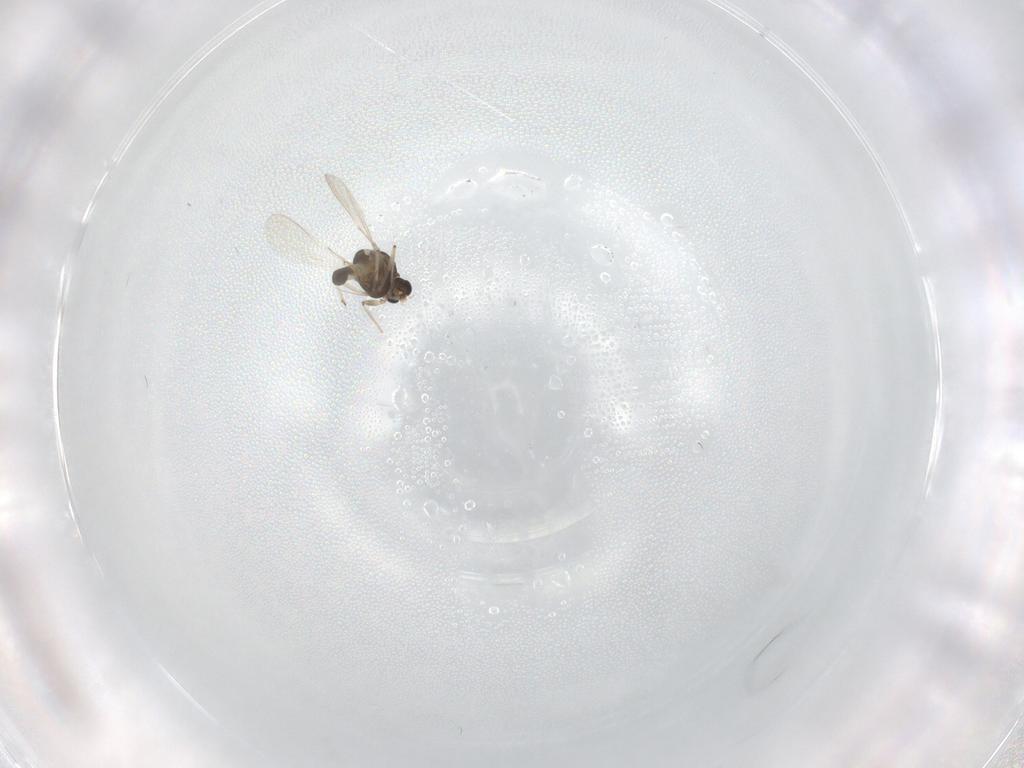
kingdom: Animalia
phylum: Arthropoda
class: Insecta
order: Diptera
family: Chironomidae
